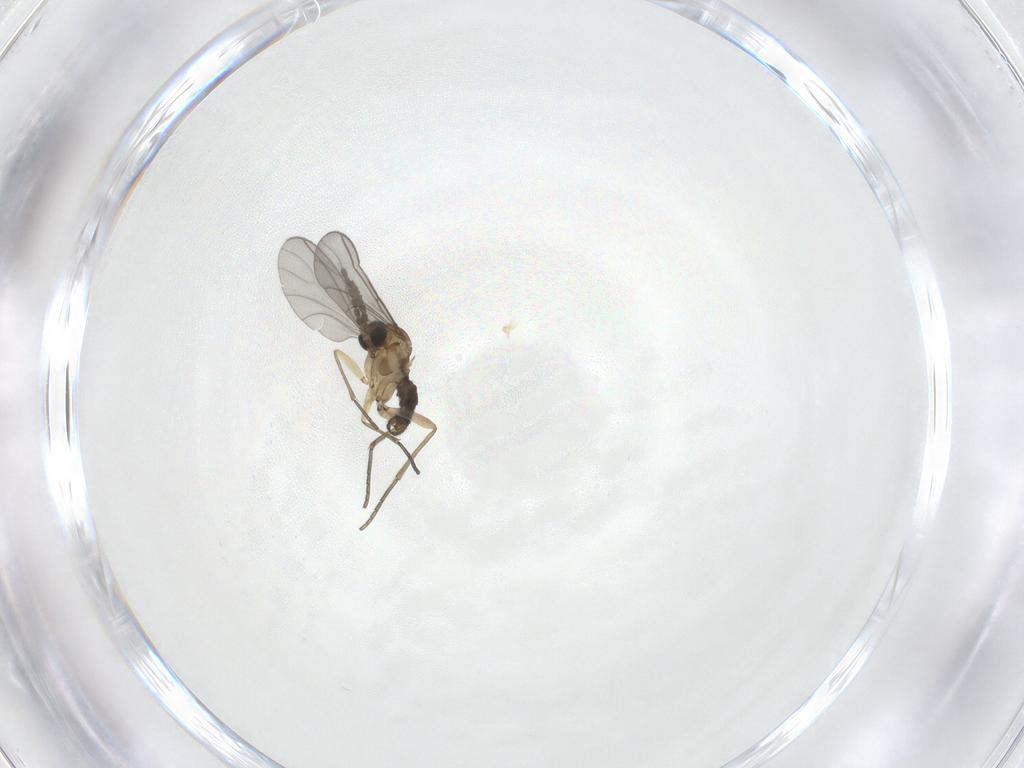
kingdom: Animalia
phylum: Arthropoda
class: Insecta
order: Diptera
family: Sciaridae
